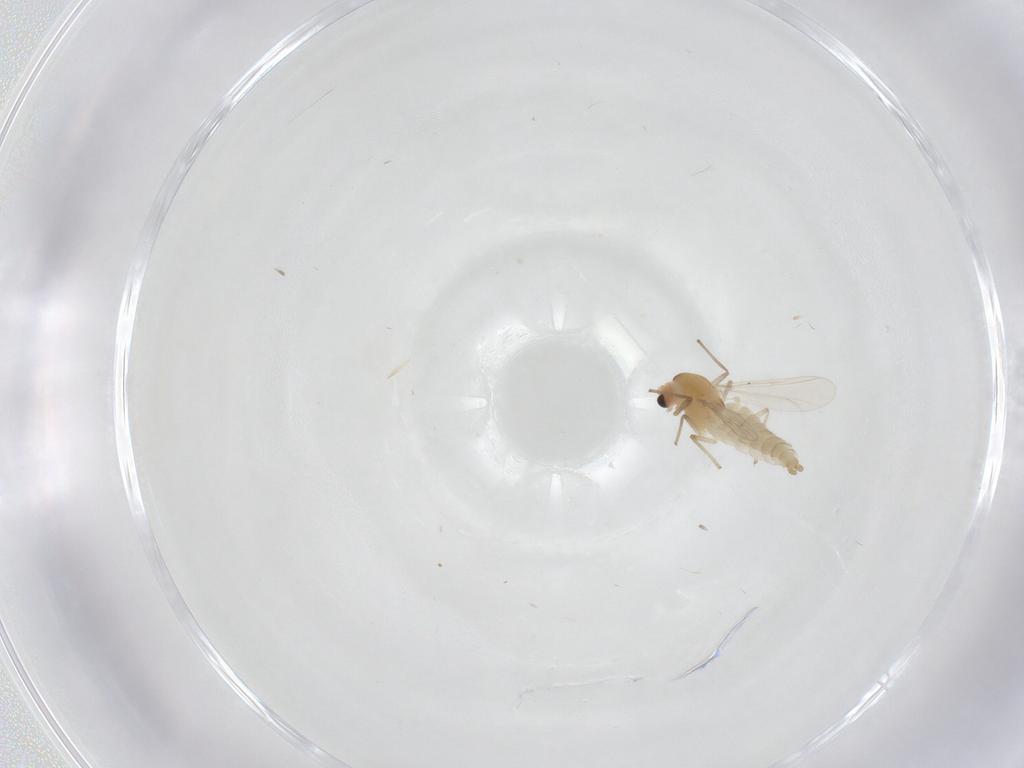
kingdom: Animalia
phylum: Arthropoda
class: Insecta
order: Diptera
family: Chironomidae
